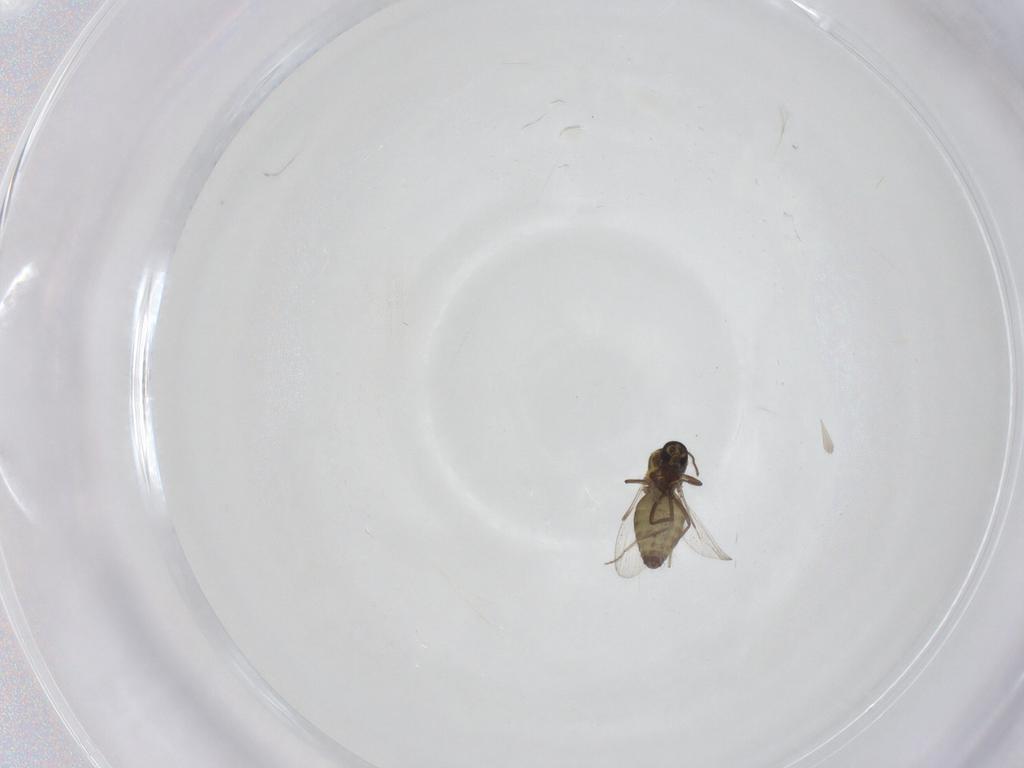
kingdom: Animalia
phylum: Arthropoda
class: Insecta
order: Diptera
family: Ceratopogonidae
